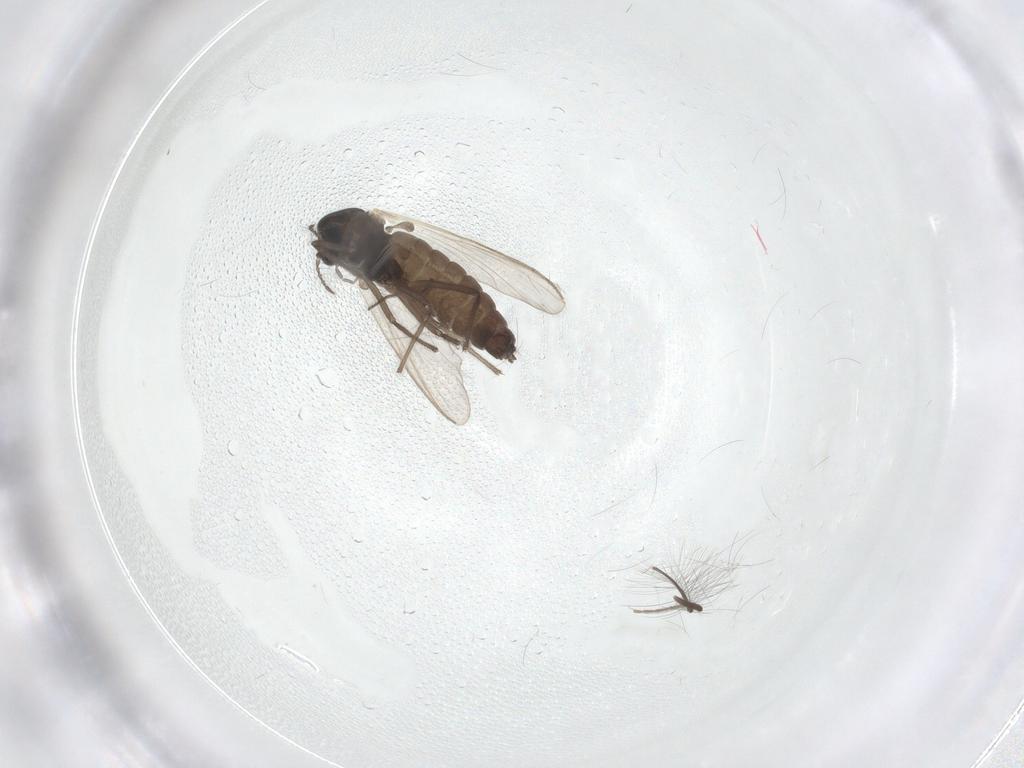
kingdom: Animalia
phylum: Arthropoda
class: Insecta
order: Diptera
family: Chironomidae
